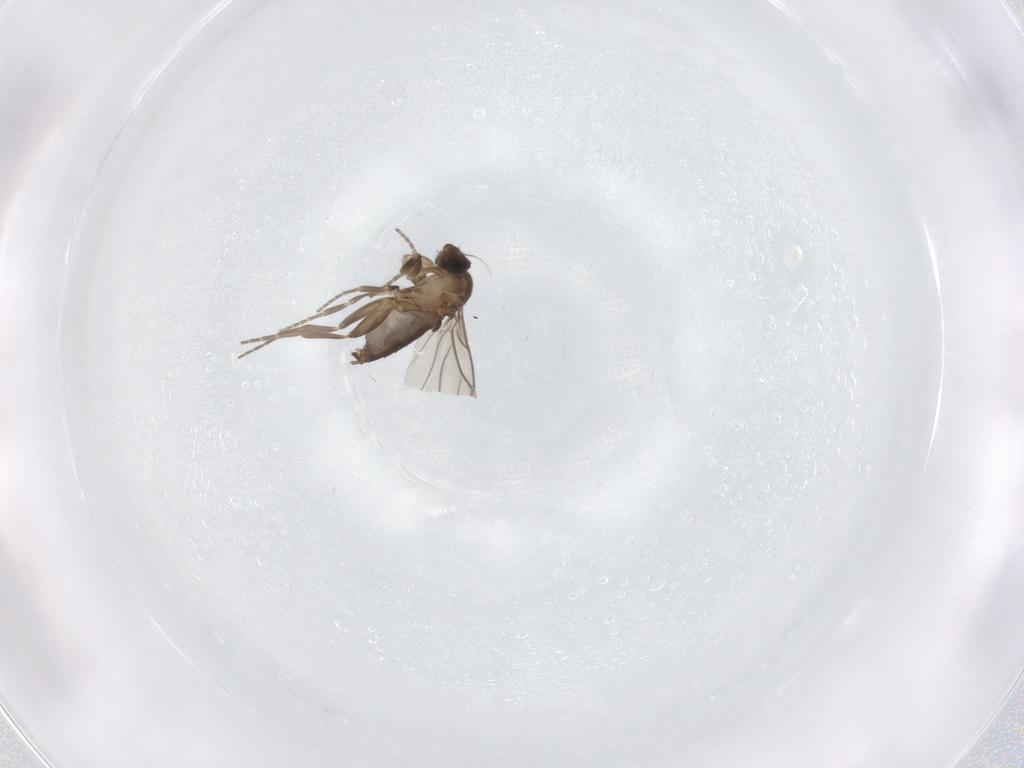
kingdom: Animalia
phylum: Arthropoda
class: Insecta
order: Diptera
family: Phoridae
